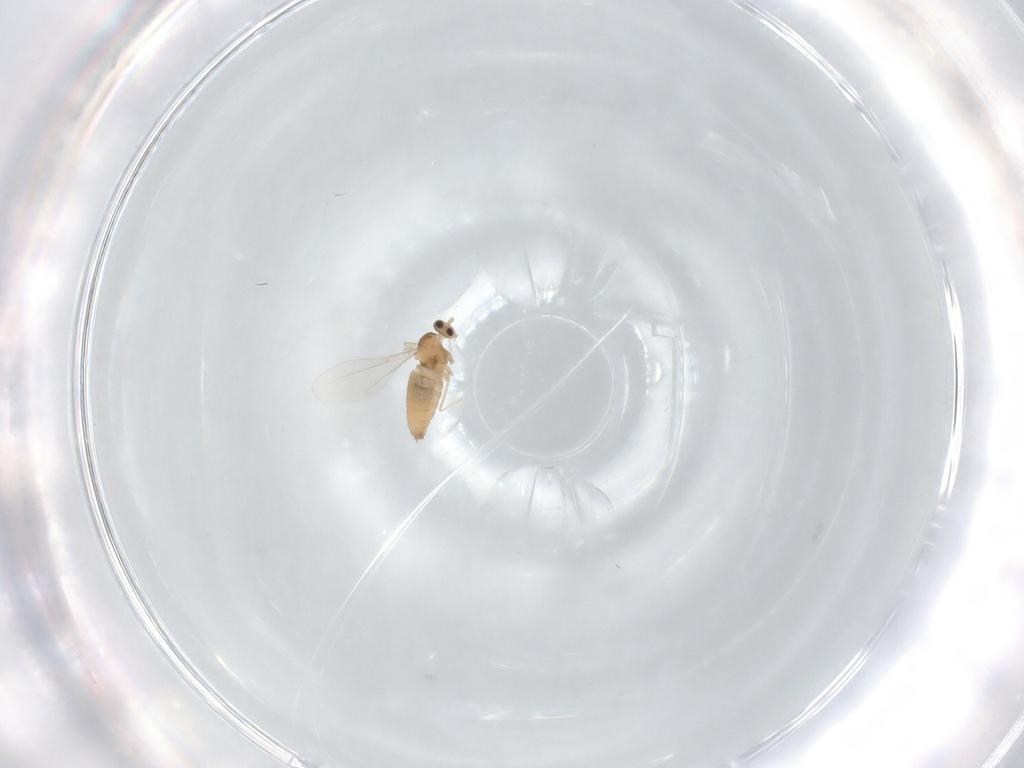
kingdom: Animalia
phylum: Arthropoda
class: Insecta
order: Diptera
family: Cecidomyiidae
